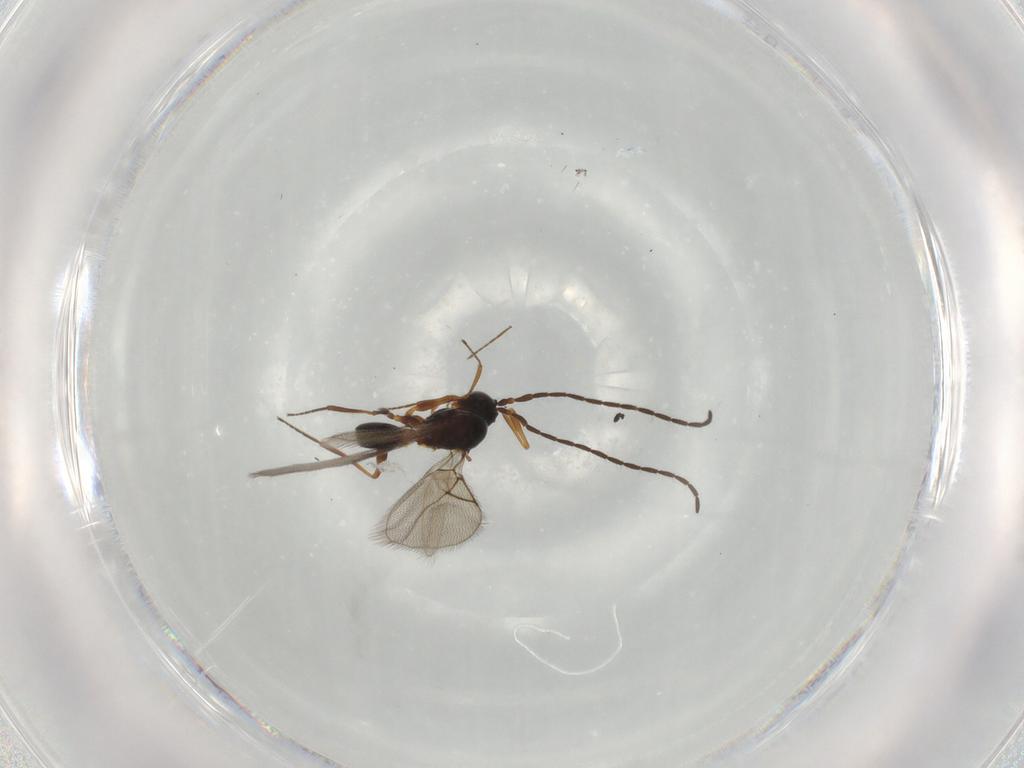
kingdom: Animalia
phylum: Arthropoda
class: Insecta
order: Hymenoptera
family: Figitidae
